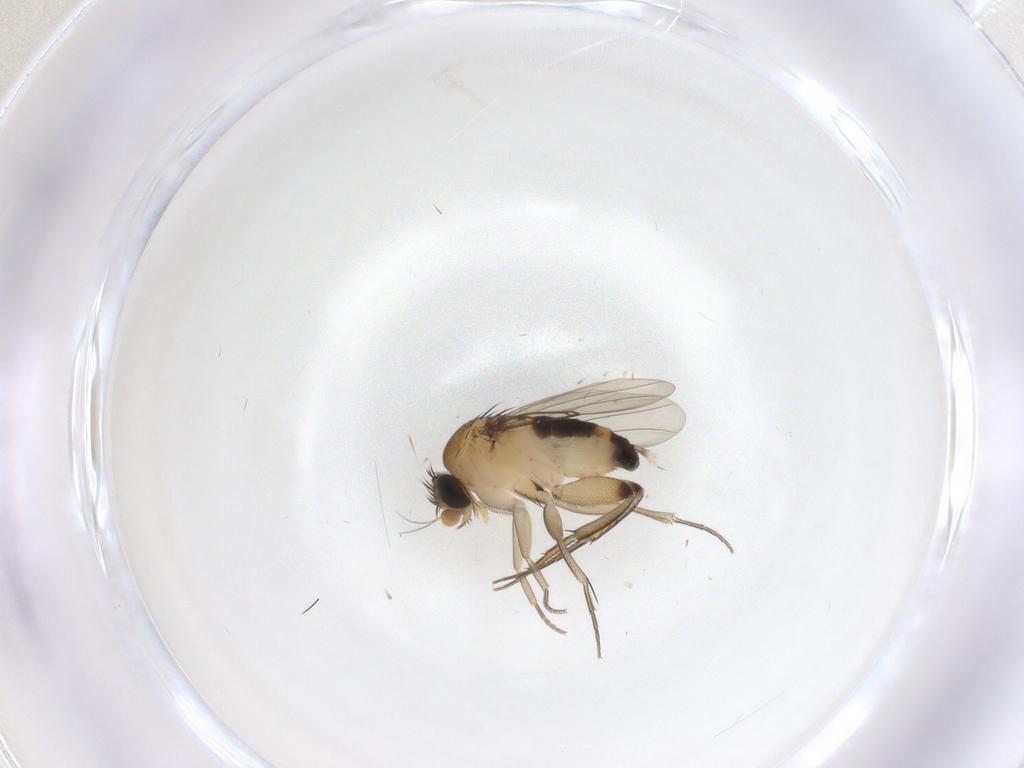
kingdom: Animalia
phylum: Arthropoda
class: Insecta
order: Diptera
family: Phoridae
